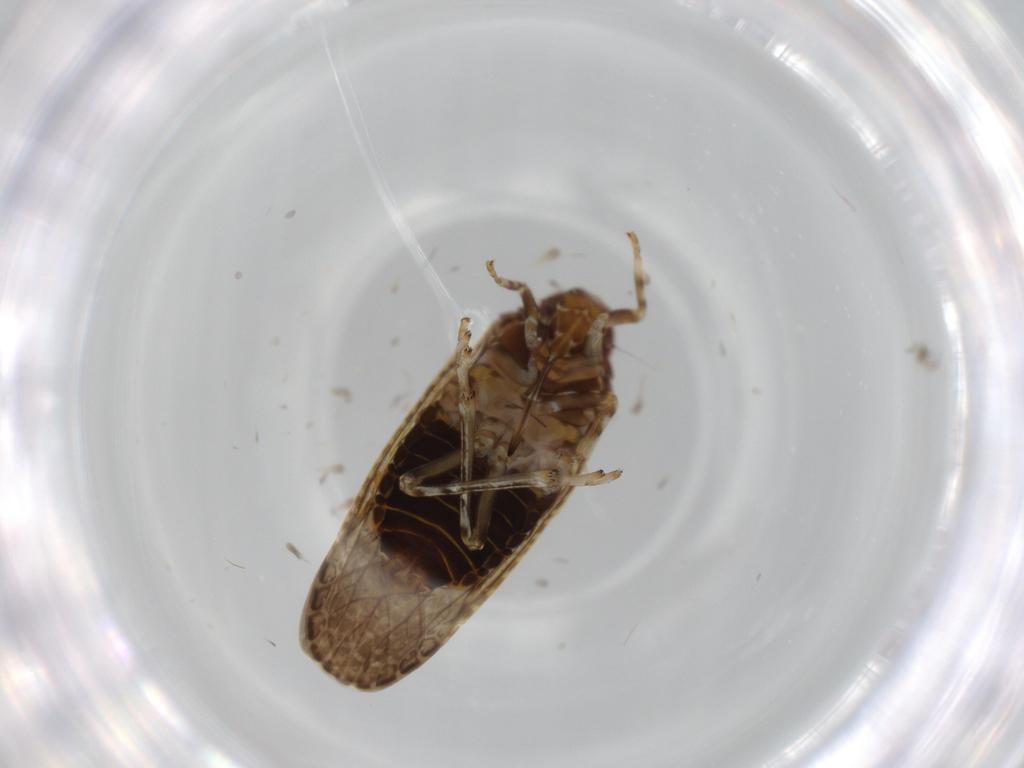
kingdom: Animalia
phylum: Arthropoda
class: Insecta
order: Hemiptera
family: Achilidae
